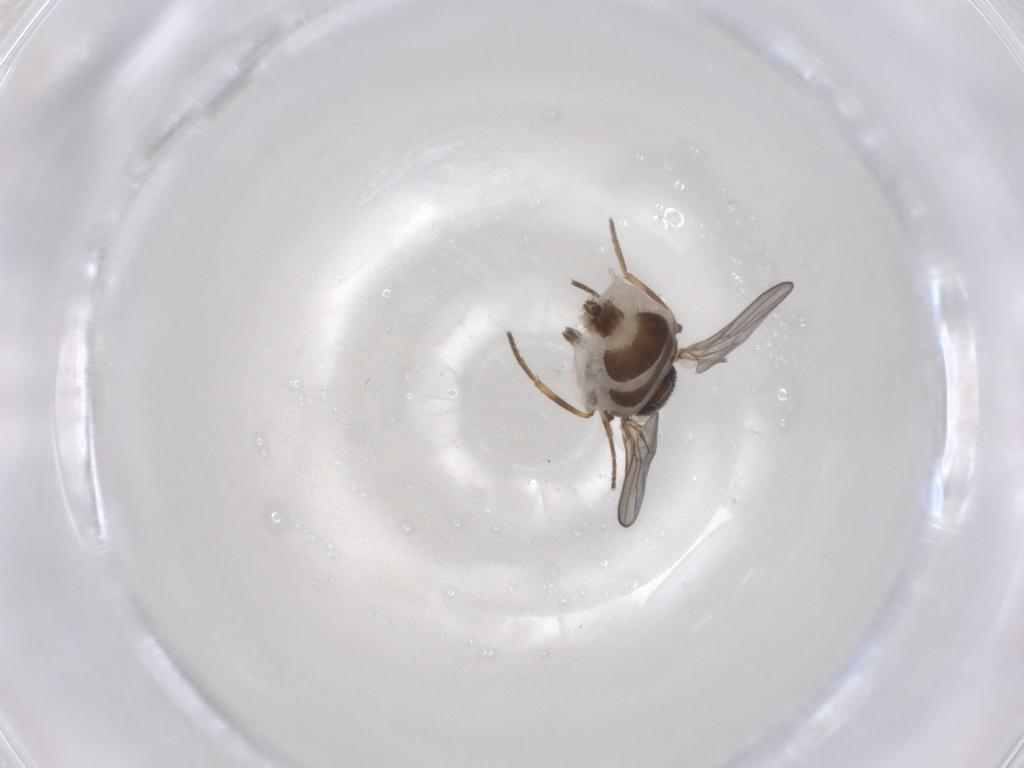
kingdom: Animalia
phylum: Arthropoda
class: Insecta
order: Diptera
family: Chloropidae
